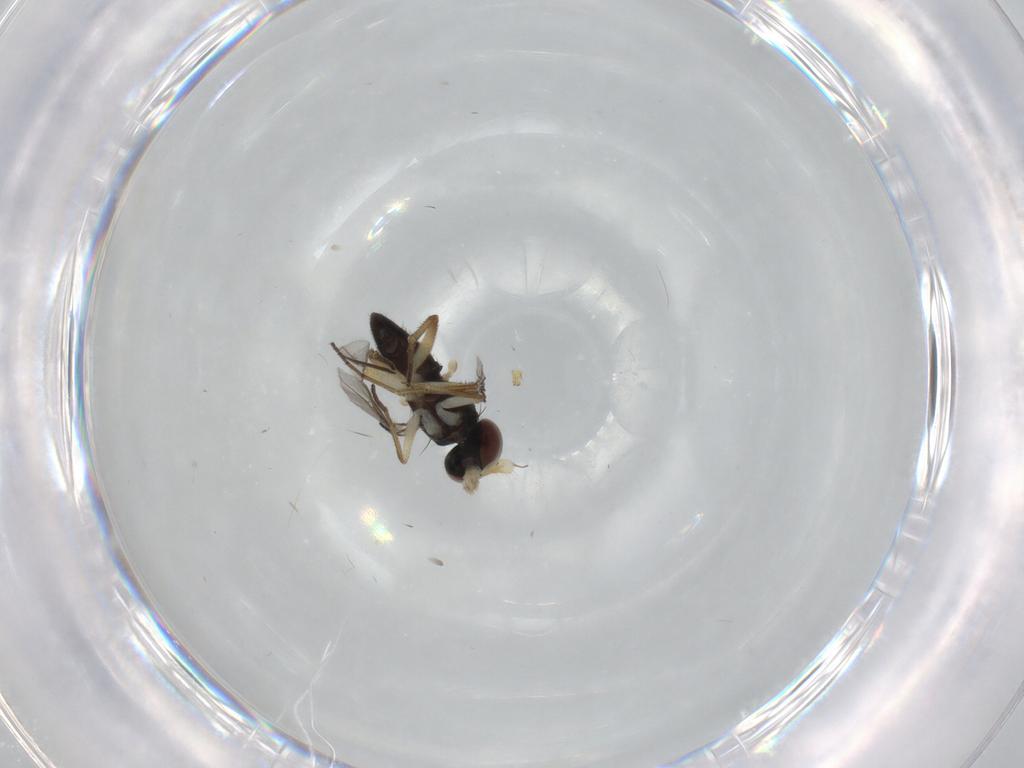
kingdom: Animalia
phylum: Arthropoda
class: Insecta
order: Diptera
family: Dolichopodidae
